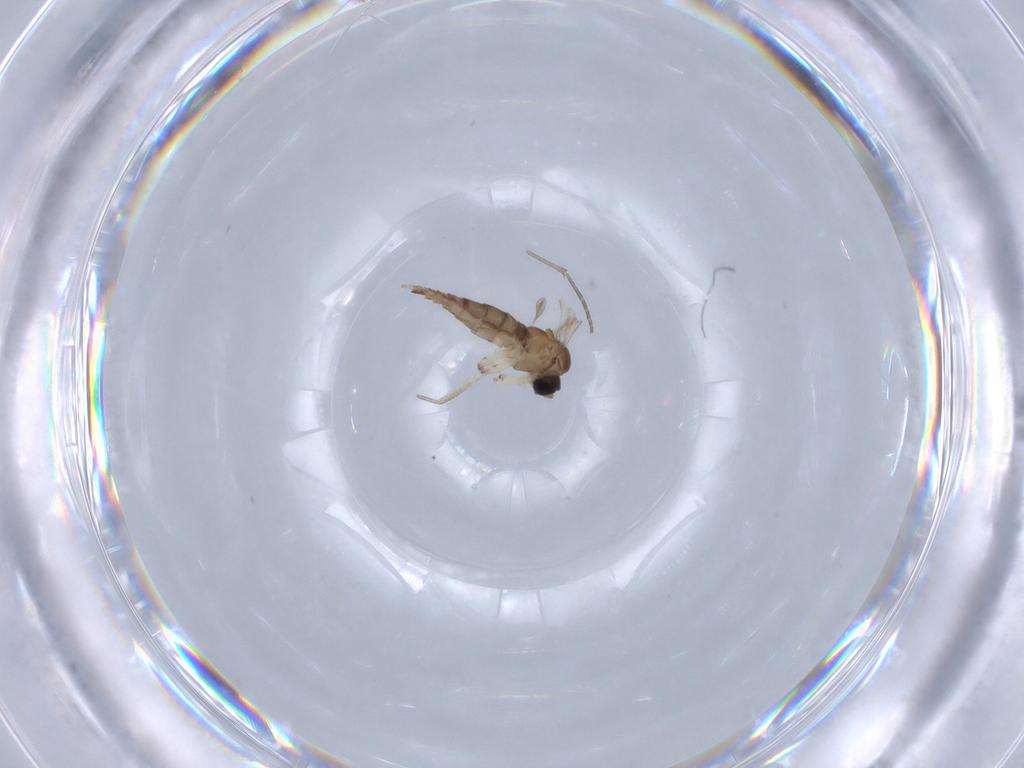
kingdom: Animalia
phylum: Arthropoda
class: Insecta
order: Diptera
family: Sciaridae
